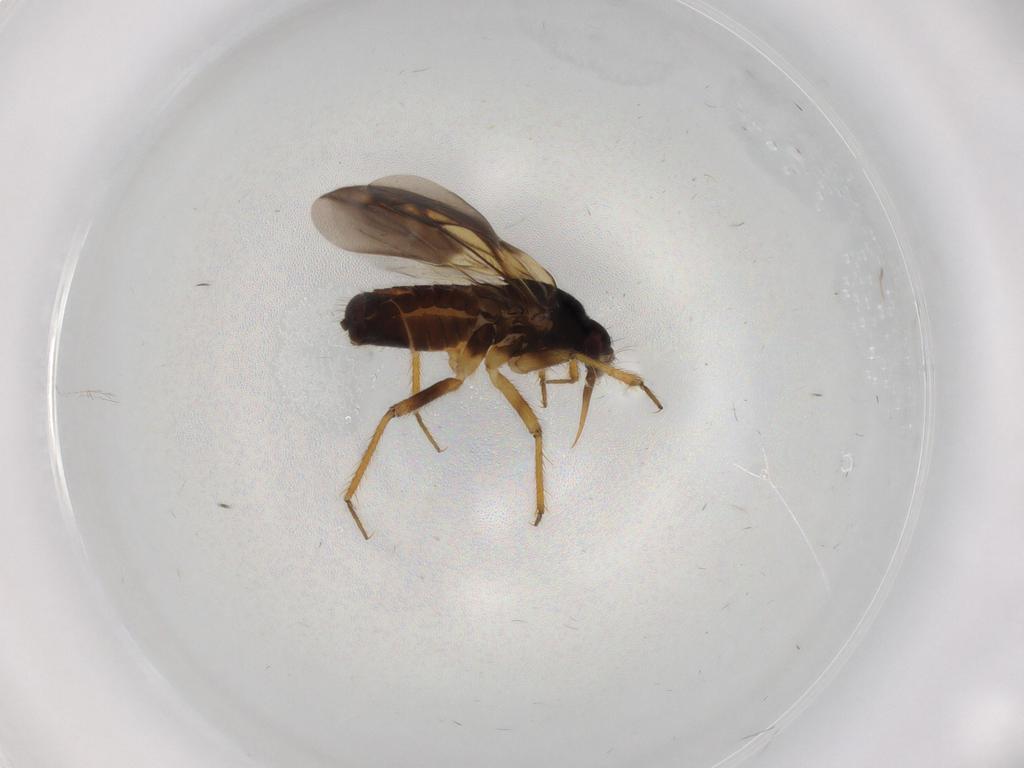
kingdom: Animalia
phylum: Arthropoda
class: Insecta
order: Hemiptera
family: Ceratocombidae
